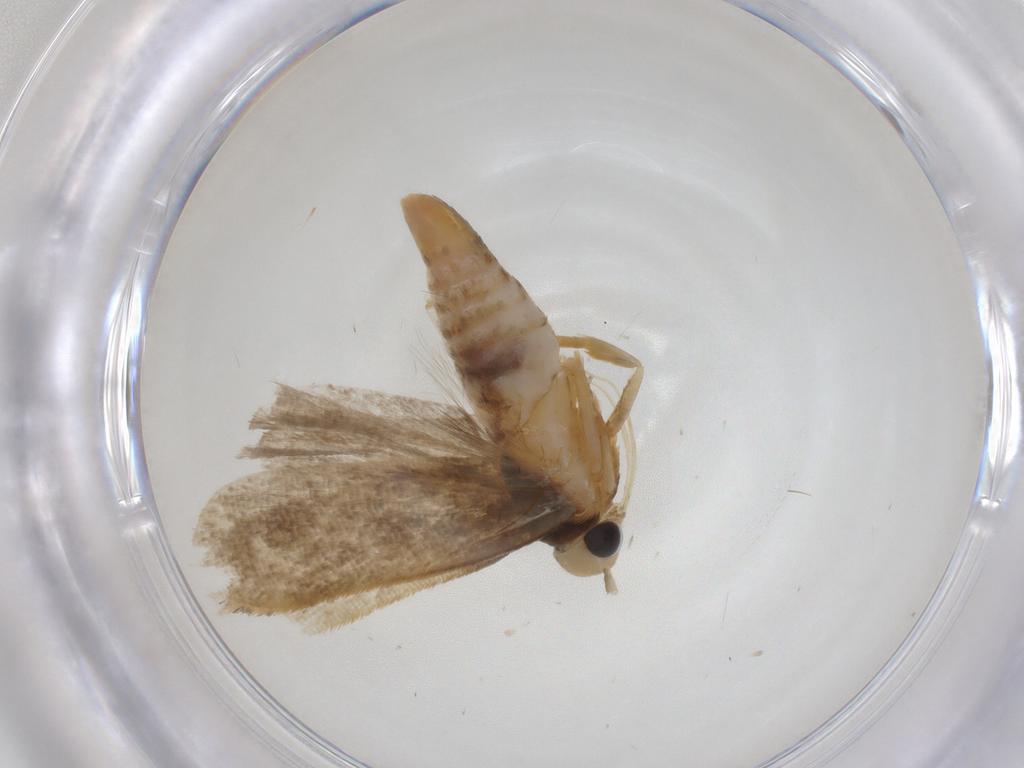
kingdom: Animalia
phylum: Arthropoda
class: Insecta
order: Lepidoptera
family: Gelechiidae
